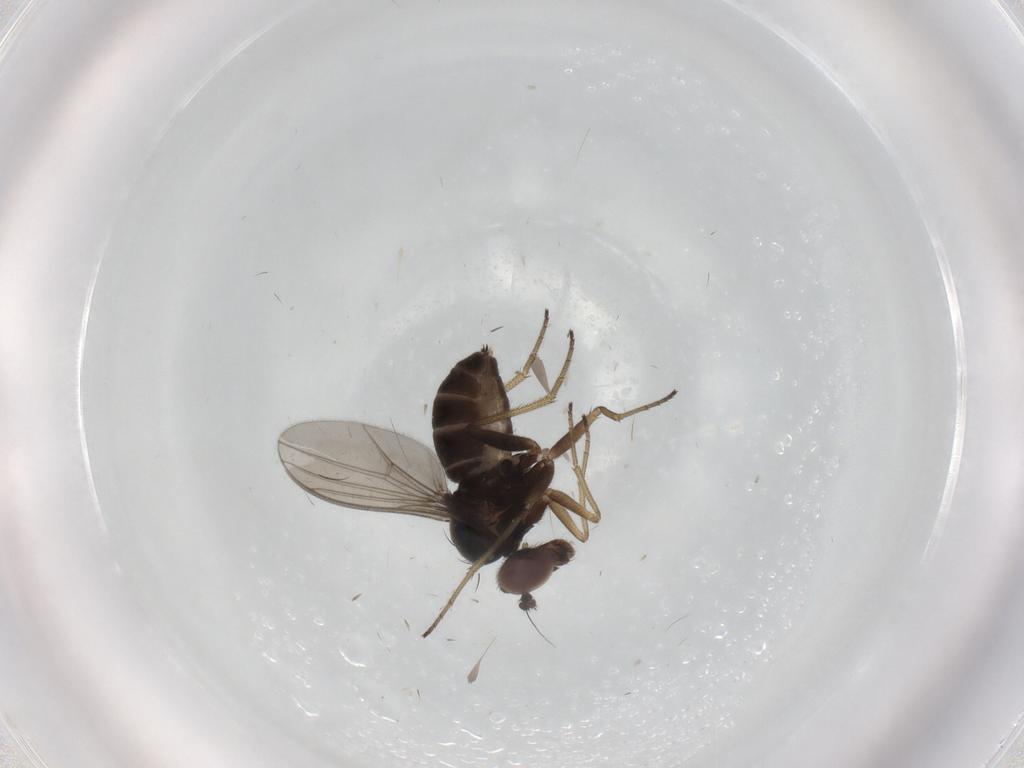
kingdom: Animalia
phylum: Arthropoda
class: Insecta
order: Diptera
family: Dolichopodidae
